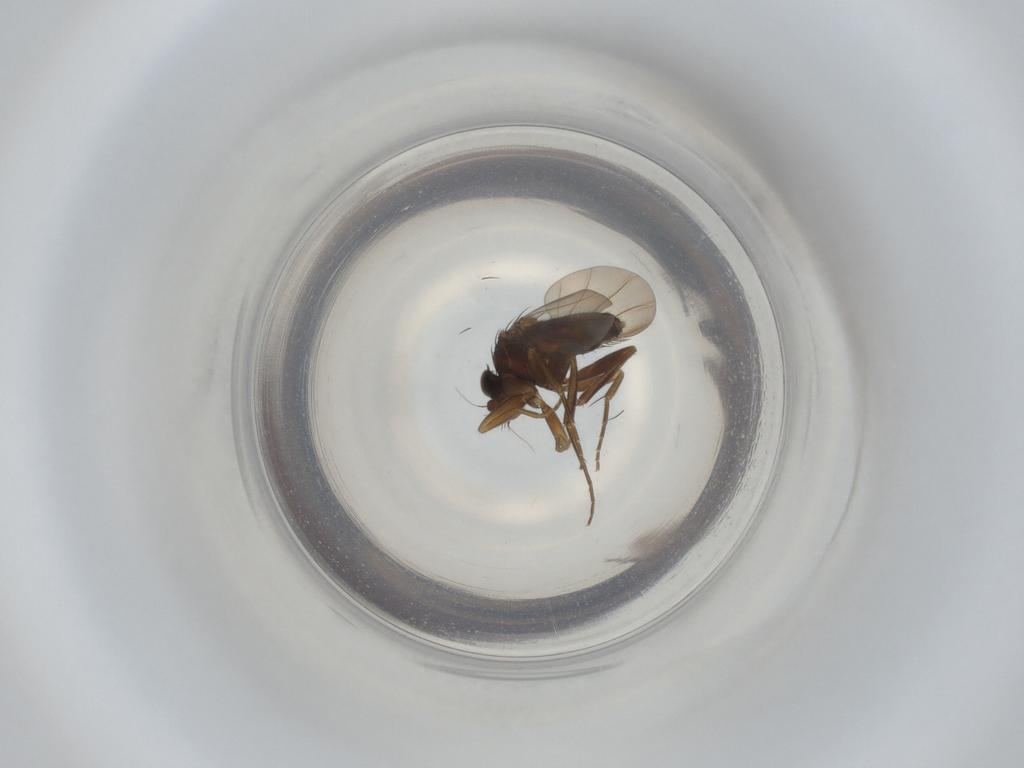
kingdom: Animalia
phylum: Arthropoda
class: Insecta
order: Diptera
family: Phoridae
